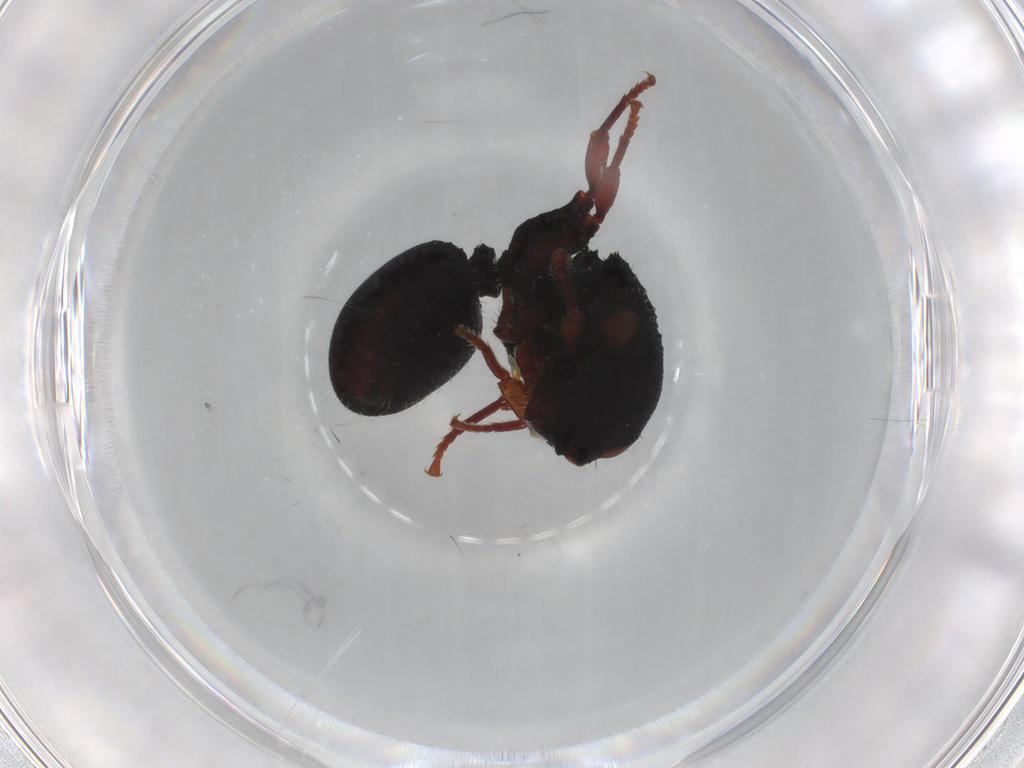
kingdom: Animalia
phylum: Arthropoda
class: Insecta
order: Hymenoptera
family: Formicidae
